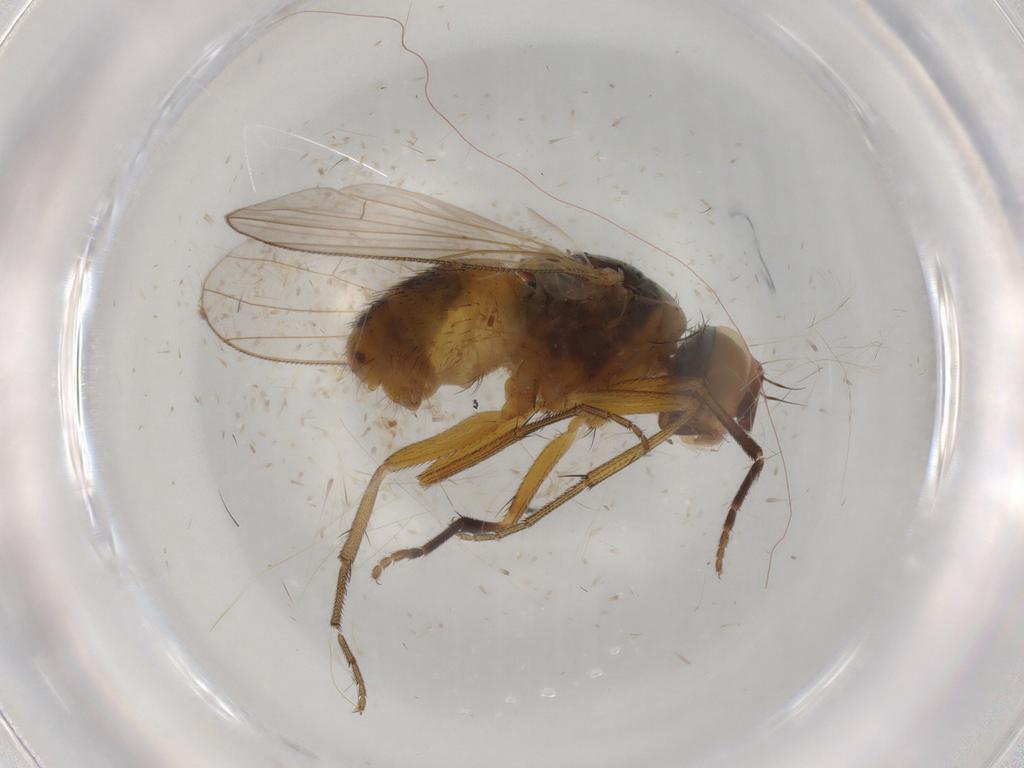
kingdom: Animalia
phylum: Arthropoda
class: Insecta
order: Diptera
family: Muscidae
